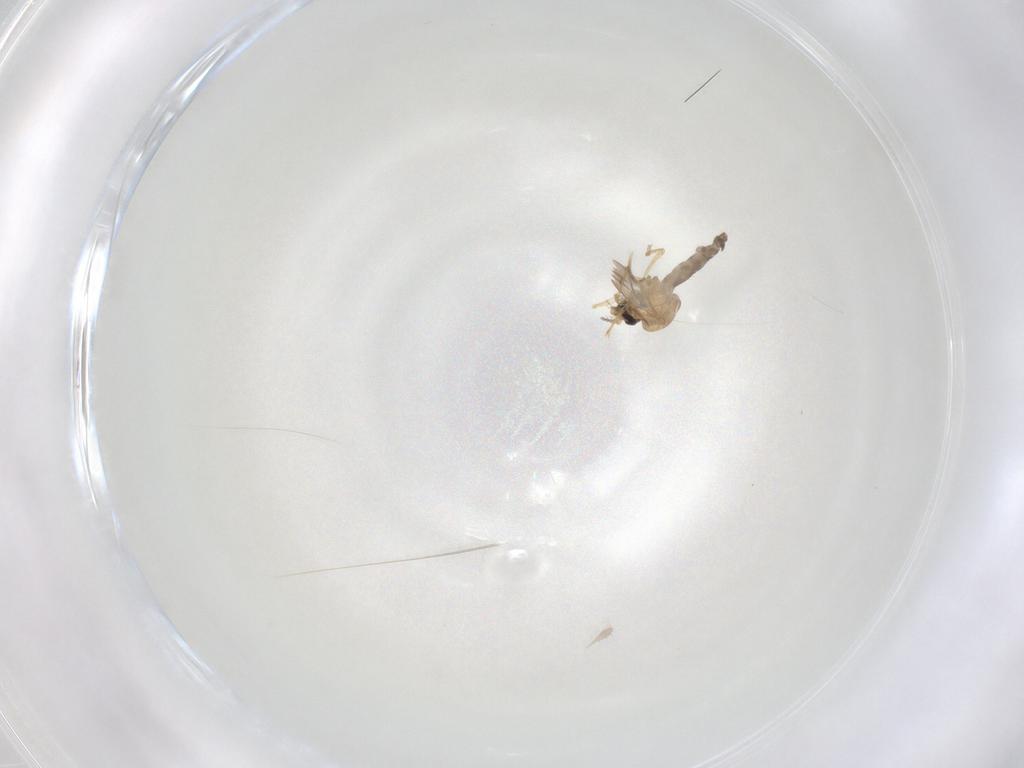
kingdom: Animalia
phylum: Arthropoda
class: Insecta
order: Diptera
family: Ceratopogonidae
